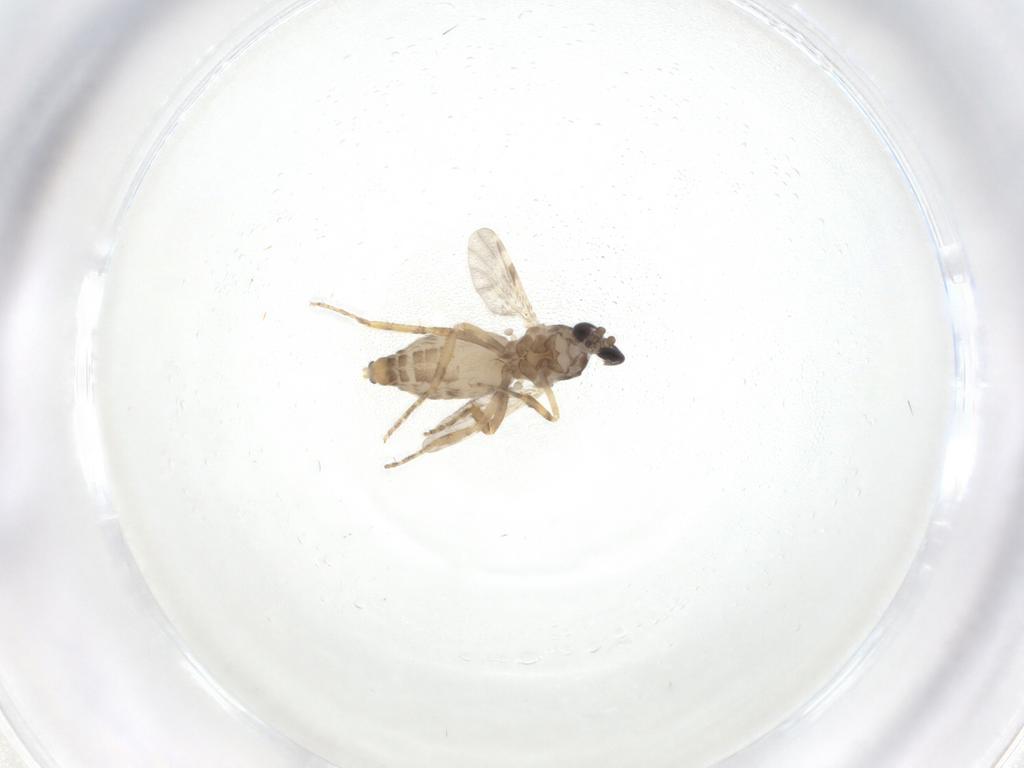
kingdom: Animalia
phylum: Arthropoda
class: Insecta
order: Diptera
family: Ceratopogonidae
